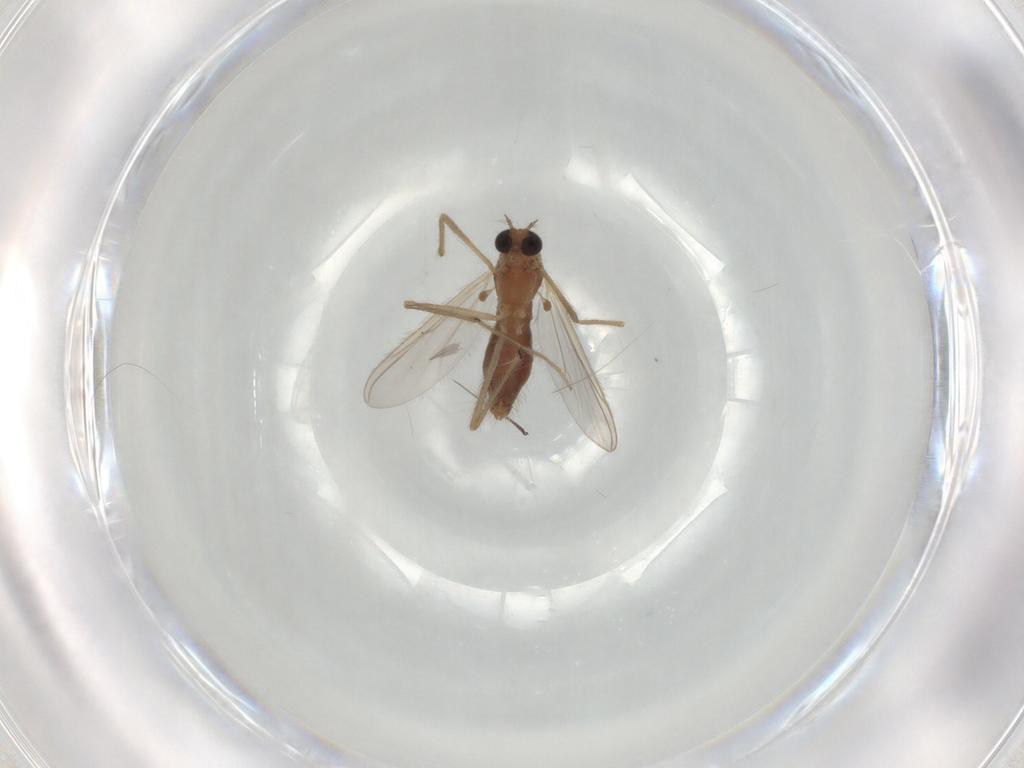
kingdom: Animalia
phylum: Arthropoda
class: Insecta
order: Diptera
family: Chironomidae
